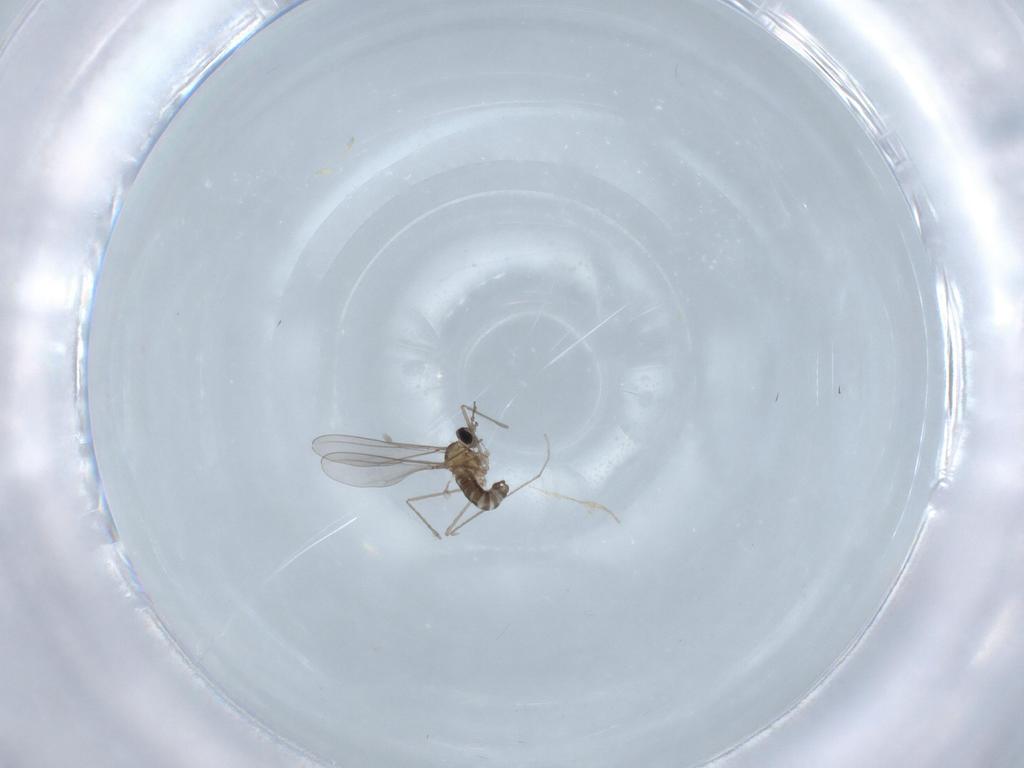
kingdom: Animalia
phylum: Arthropoda
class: Insecta
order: Diptera
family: Cecidomyiidae
